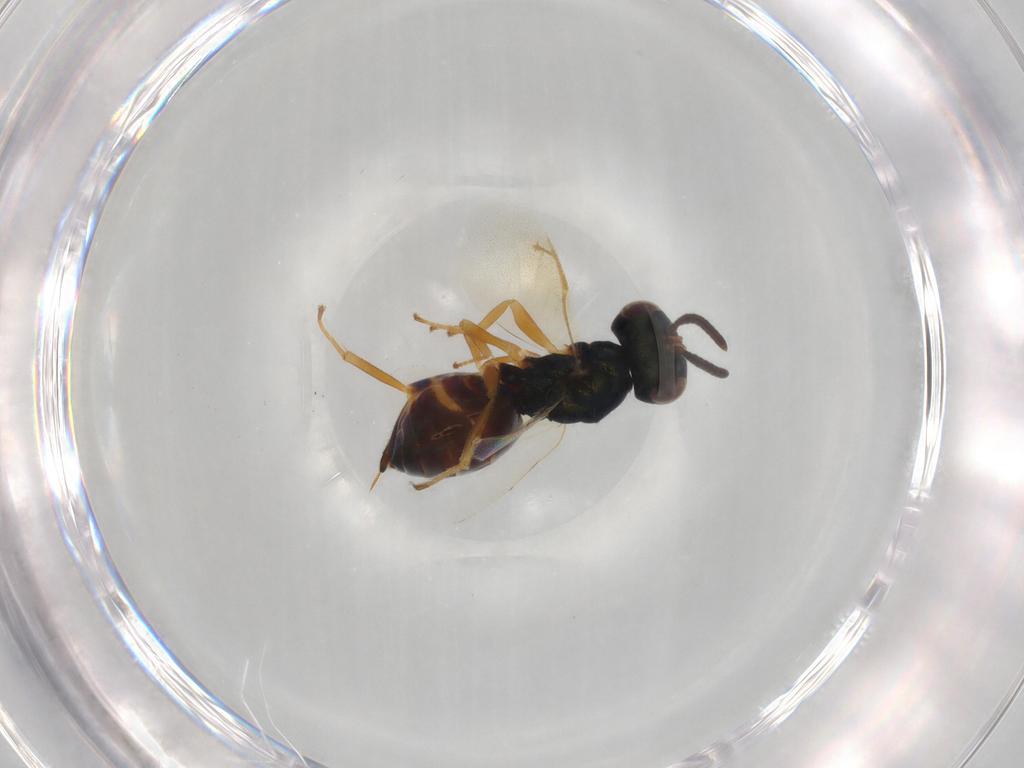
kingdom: Animalia
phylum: Arthropoda
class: Insecta
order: Hymenoptera
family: Pteromalidae
